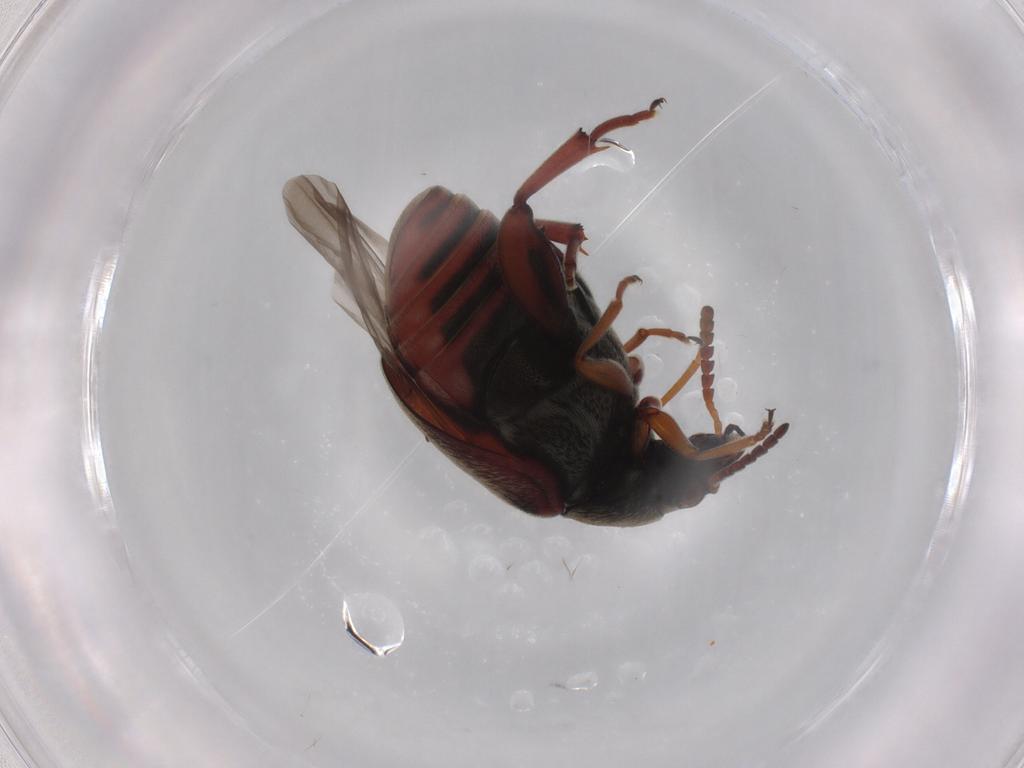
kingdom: Animalia
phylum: Arthropoda
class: Insecta
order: Coleoptera
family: Chrysomelidae
